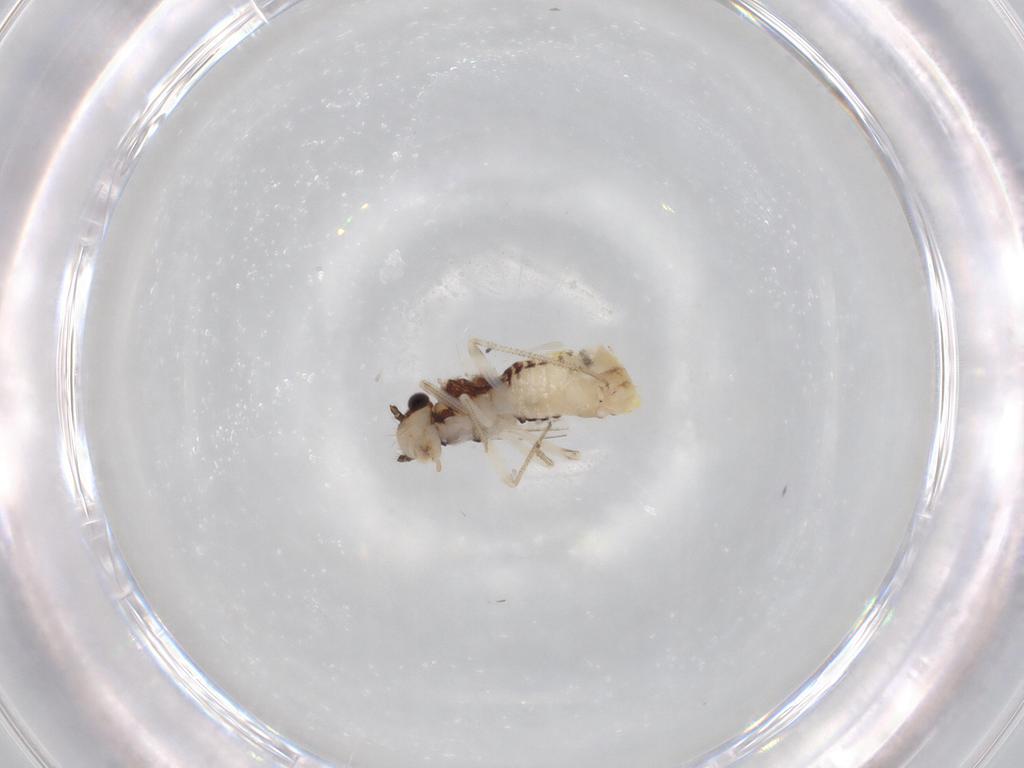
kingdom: Animalia
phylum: Arthropoda
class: Insecta
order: Psocodea
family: Caeciliusidae
